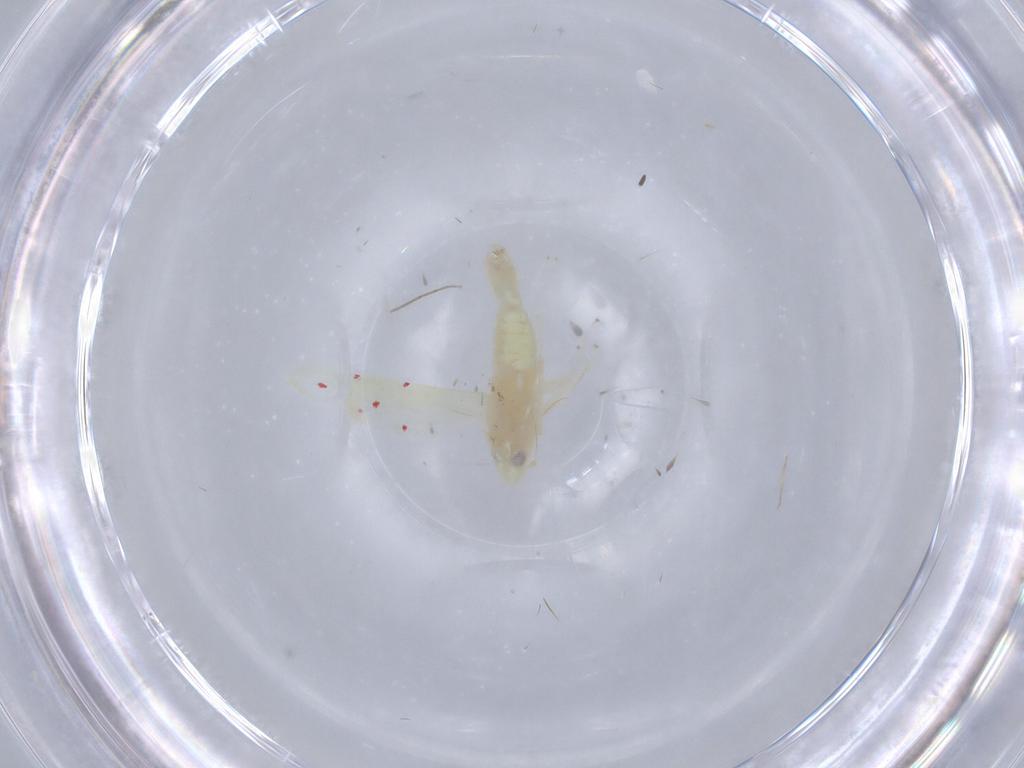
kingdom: Animalia
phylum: Arthropoda
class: Insecta
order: Hemiptera
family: Cicadellidae
